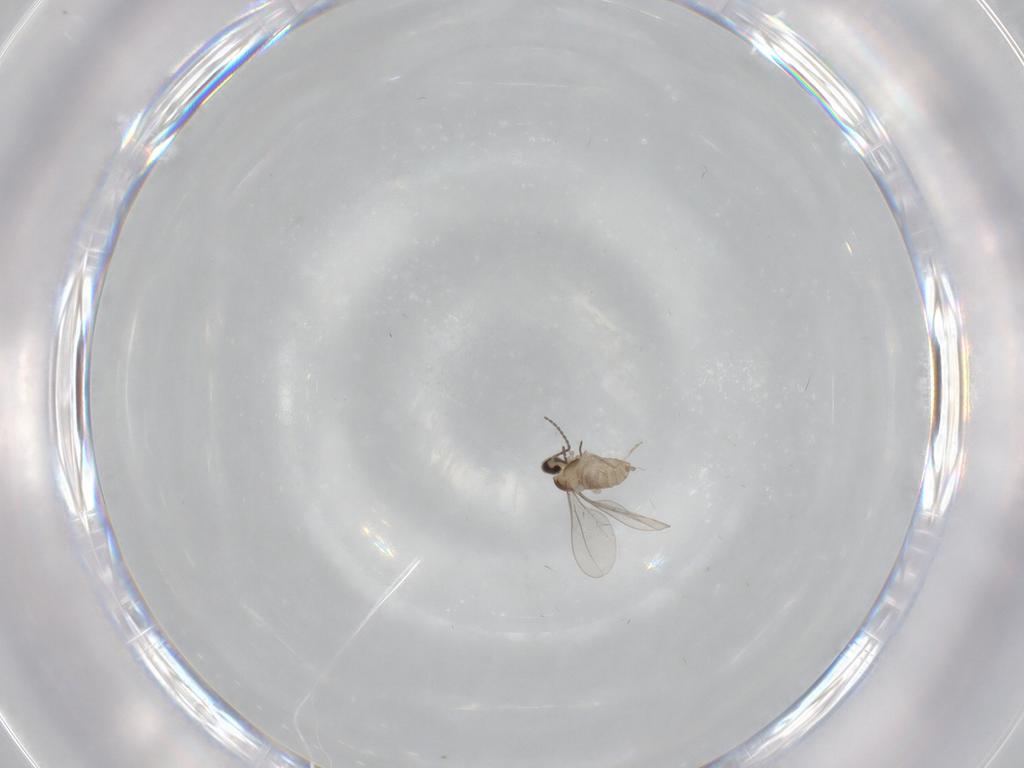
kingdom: Animalia
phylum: Arthropoda
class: Insecta
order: Diptera
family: Chironomidae
